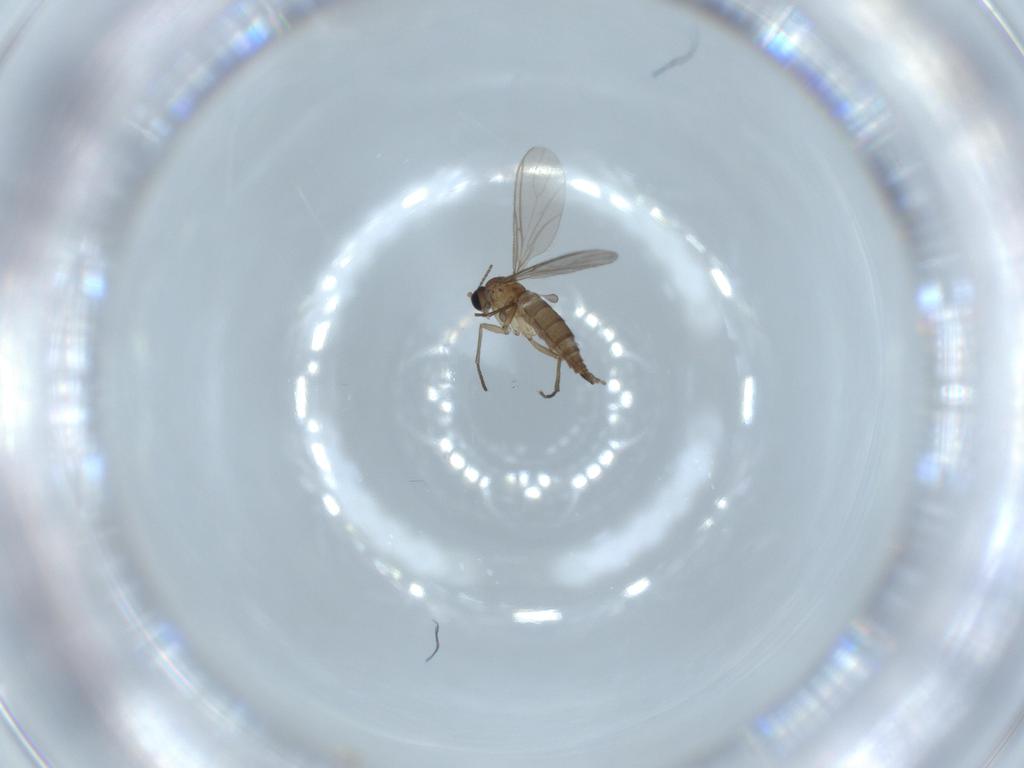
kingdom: Animalia
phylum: Arthropoda
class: Insecta
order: Diptera
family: Sciaridae
